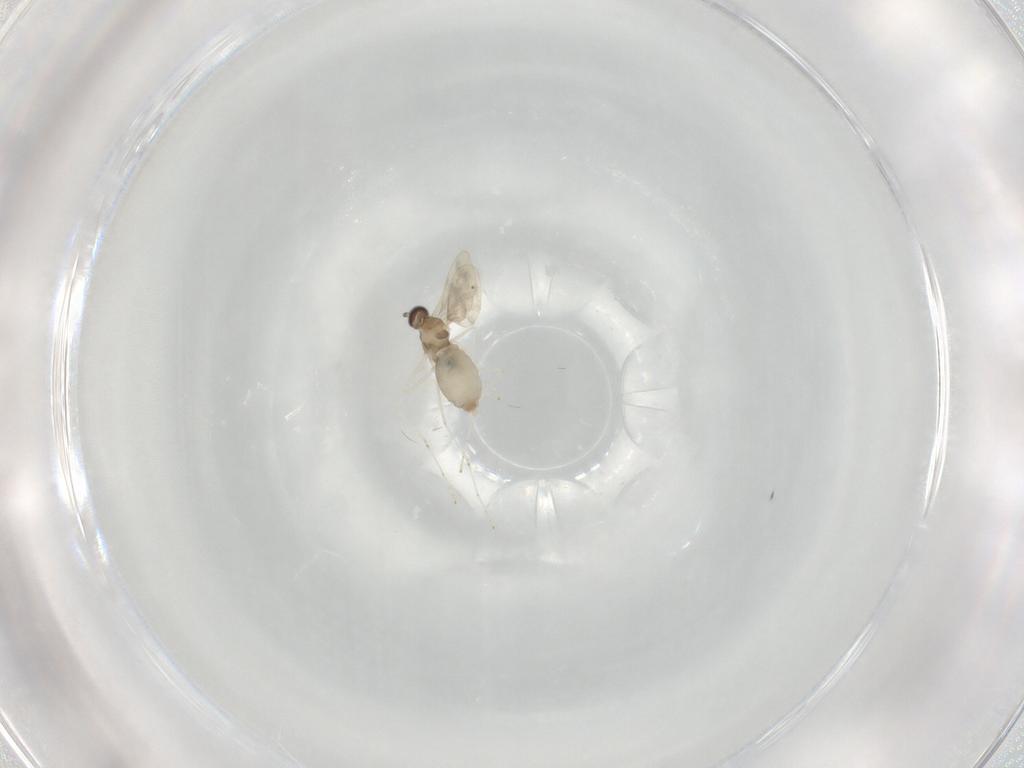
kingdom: Animalia
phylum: Arthropoda
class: Insecta
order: Diptera
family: Cecidomyiidae
